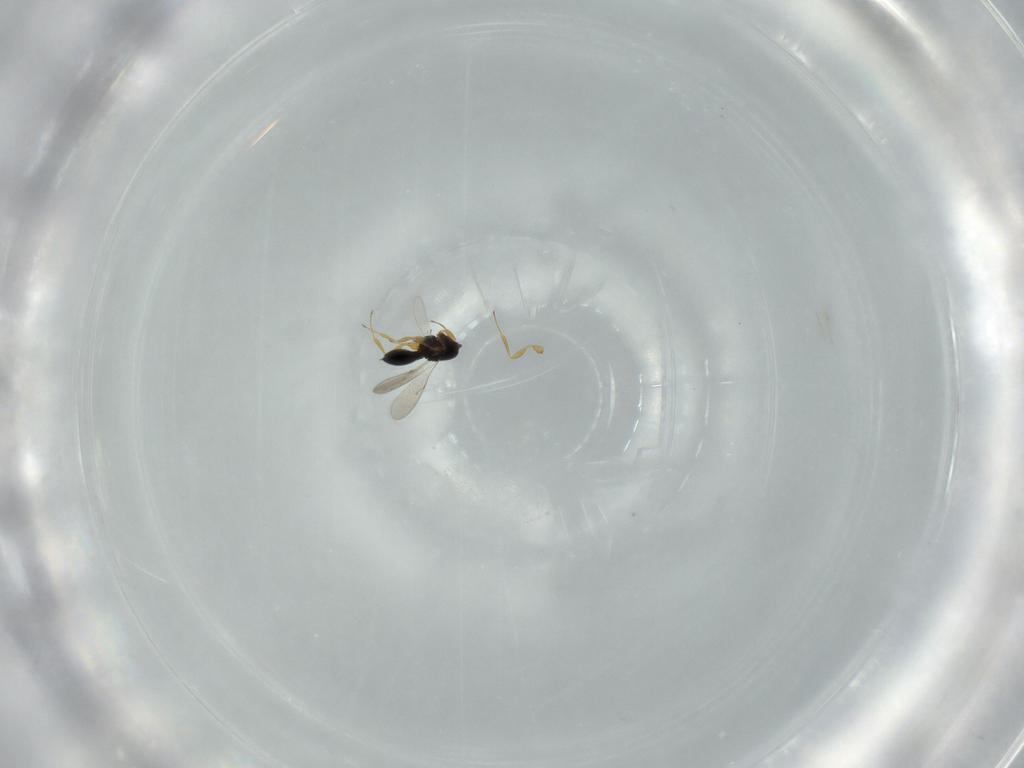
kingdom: Animalia
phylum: Arthropoda
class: Insecta
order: Hymenoptera
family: Scelionidae
